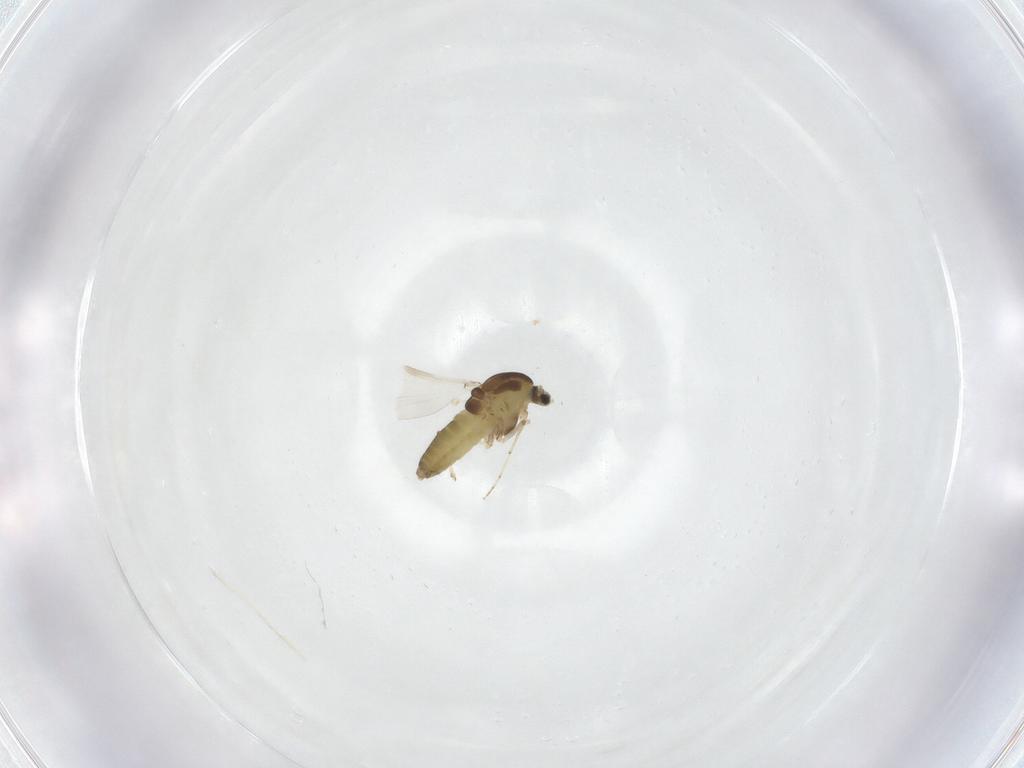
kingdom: Animalia
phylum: Arthropoda
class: Insecta
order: Diptera
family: Chironomidae
